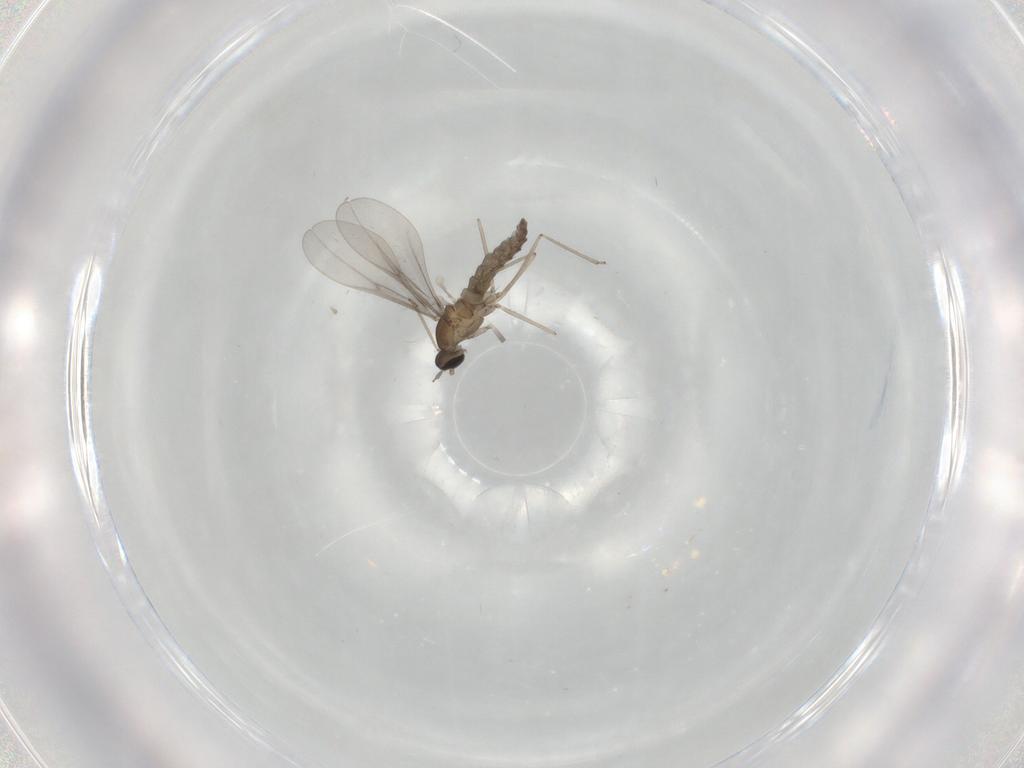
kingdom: Animalia
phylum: Arthropoda
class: Insecta
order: Diptera
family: Cecidomyiidae
